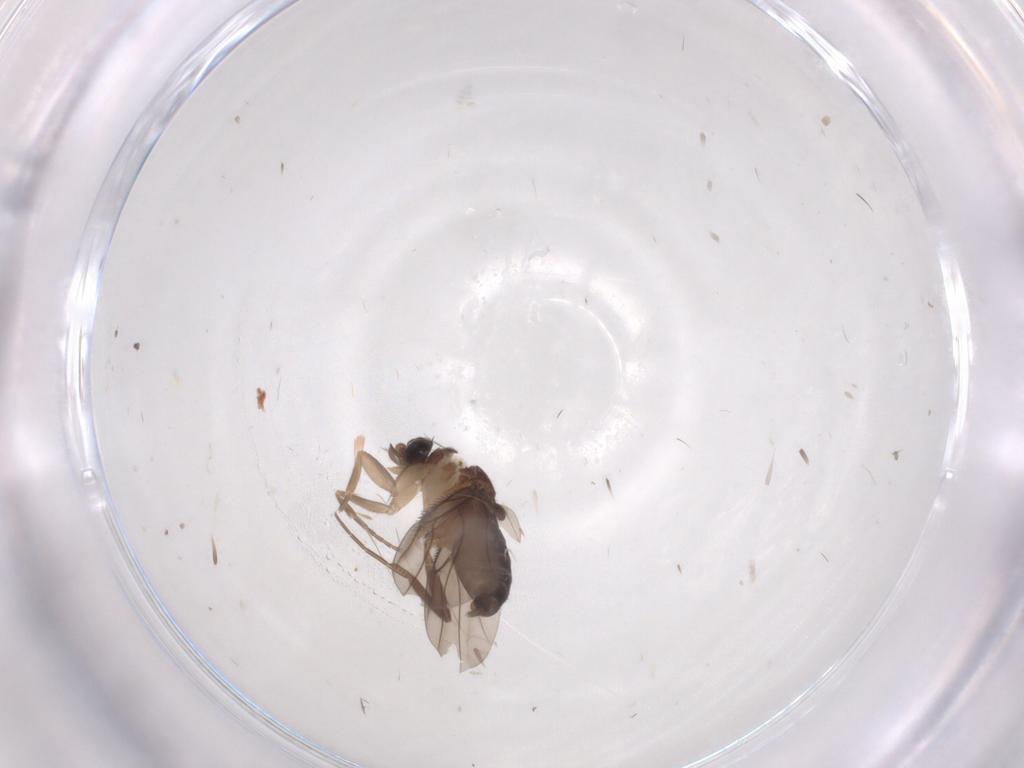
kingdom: Animalia
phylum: Arthropoda
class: Insecta
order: Diptera
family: Phoridae
